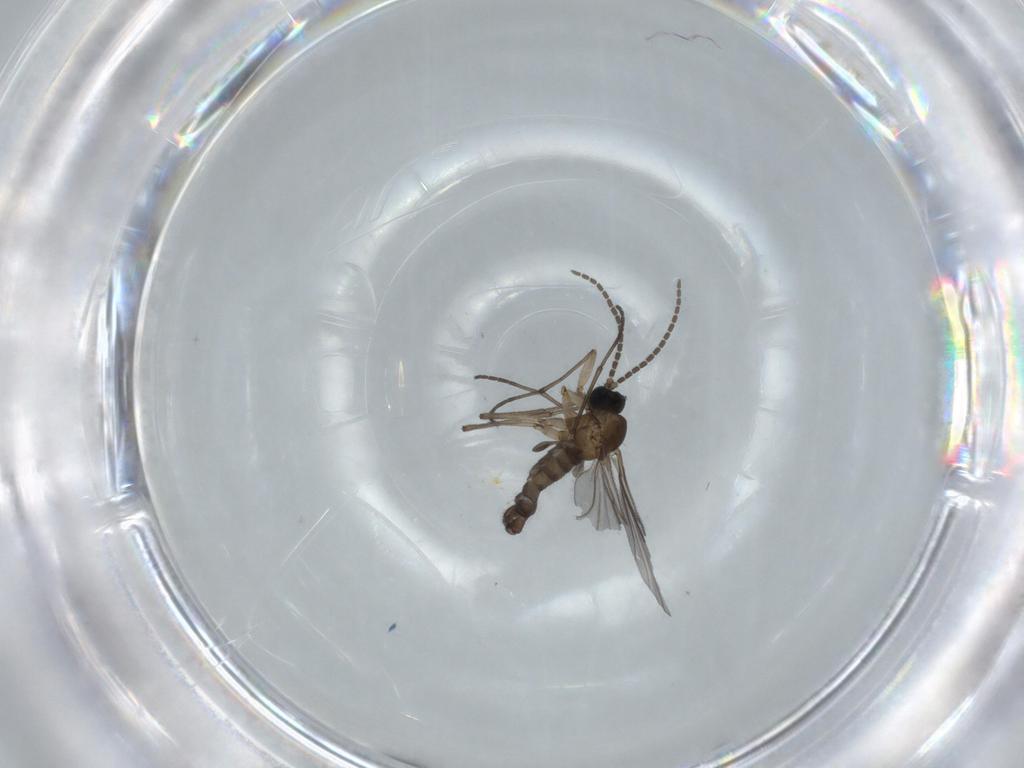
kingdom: Animalia
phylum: Arthropoda
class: Insecta
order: Diptera
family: Sciaridae
